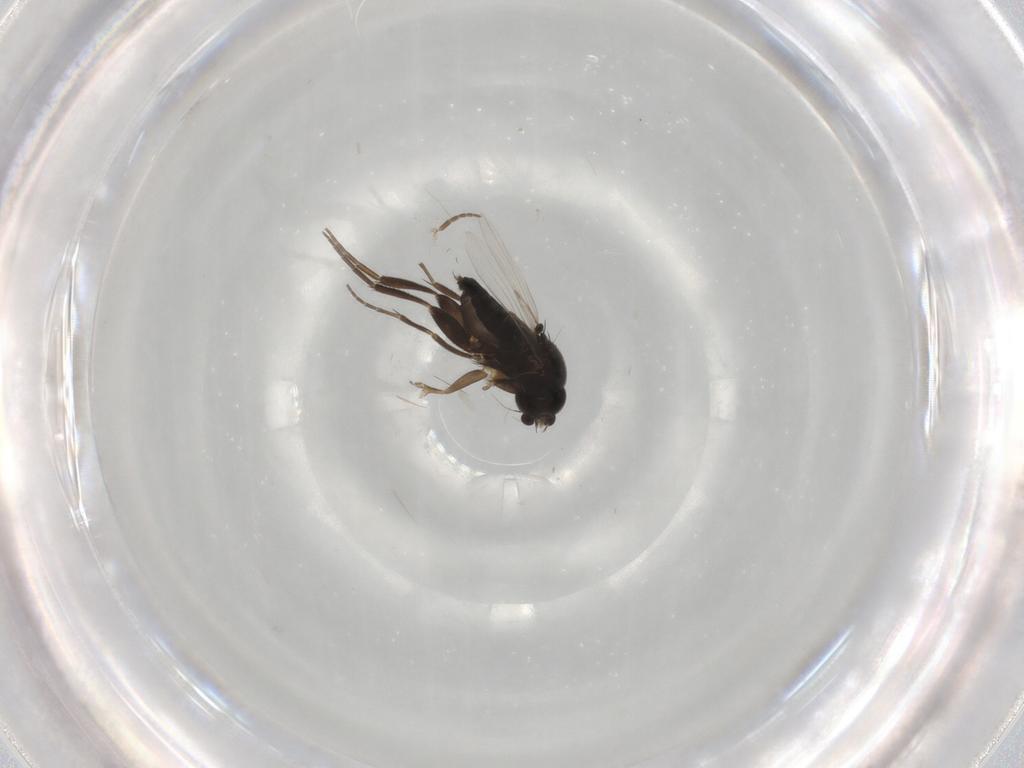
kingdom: Animalia
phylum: Arthropoda
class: Insecta
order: Diptera
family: Phoridae
